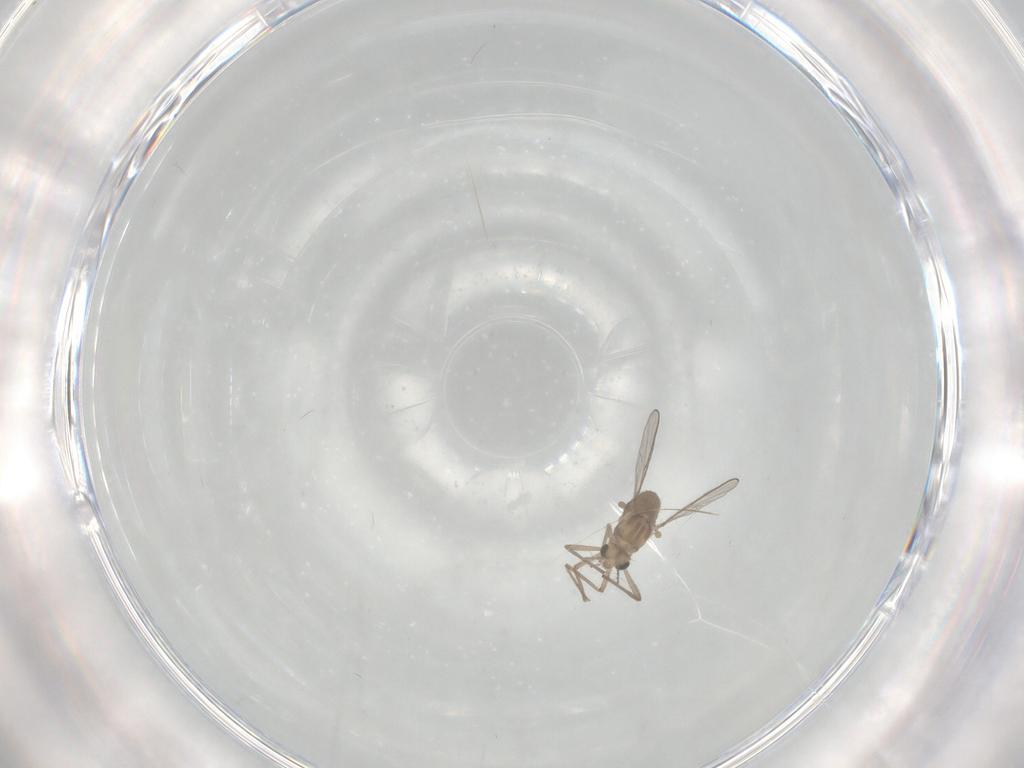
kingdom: Animalia
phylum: Arthropoda
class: Insecta
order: Diptera
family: Chironomidae
